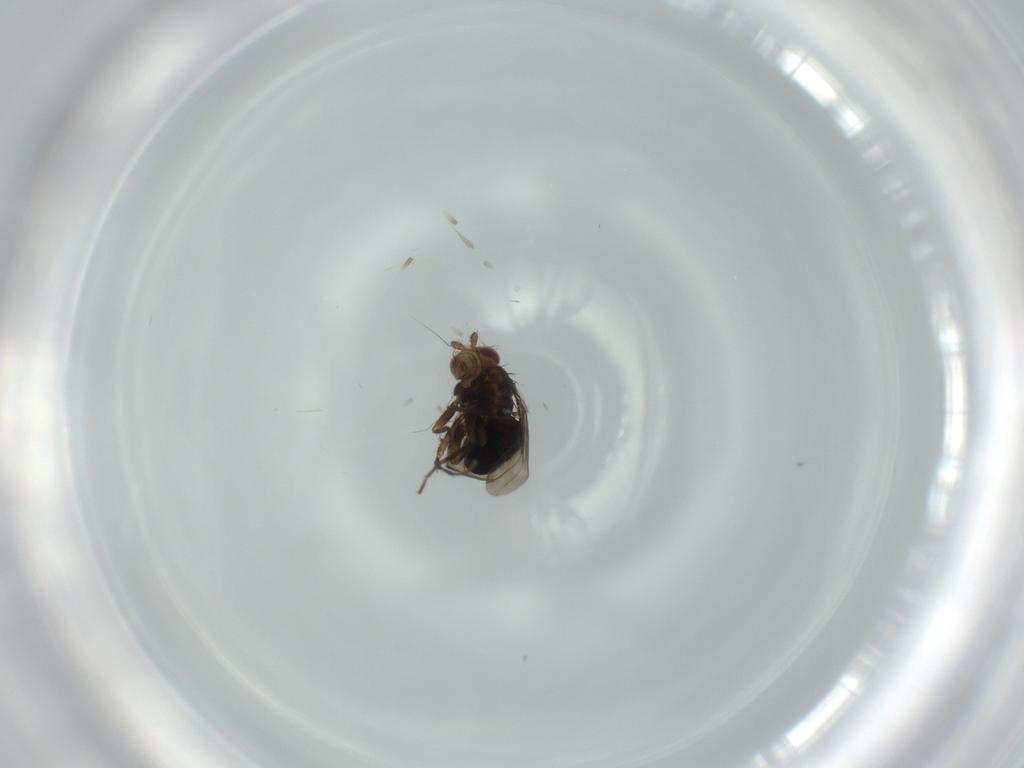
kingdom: Animalia
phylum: Arthropoda
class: Insecta
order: Diptera
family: Sphaeroceridae
